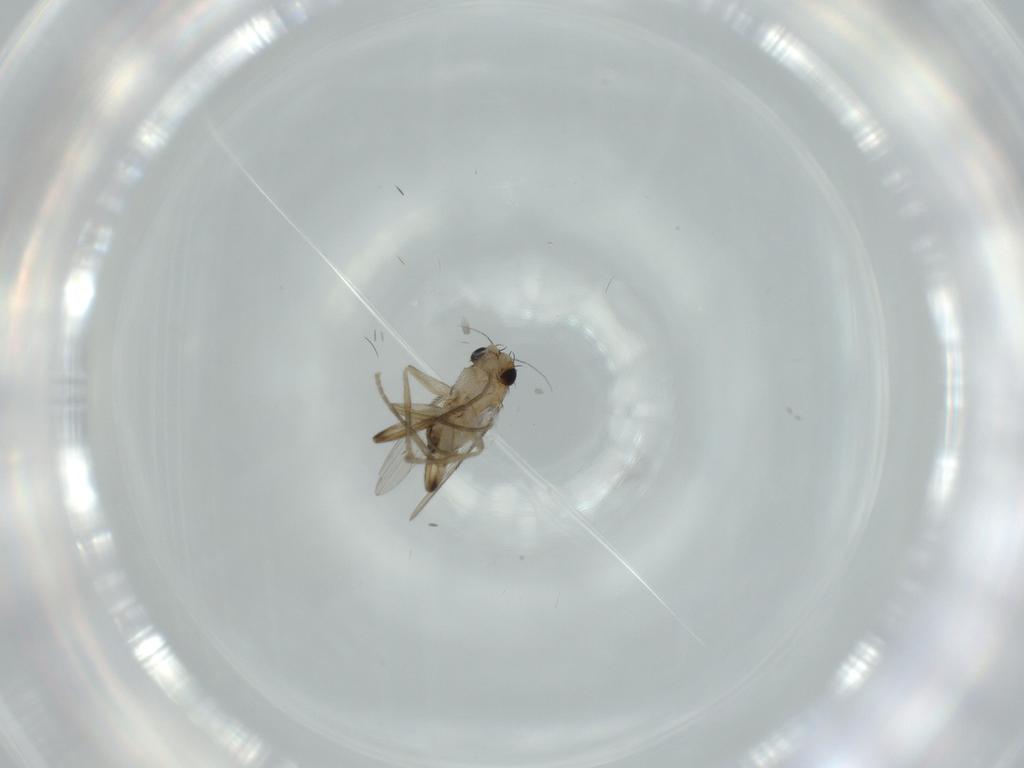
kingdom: Animalia
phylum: Arthropoda
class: Insecta
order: Diptera
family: Phoridae
